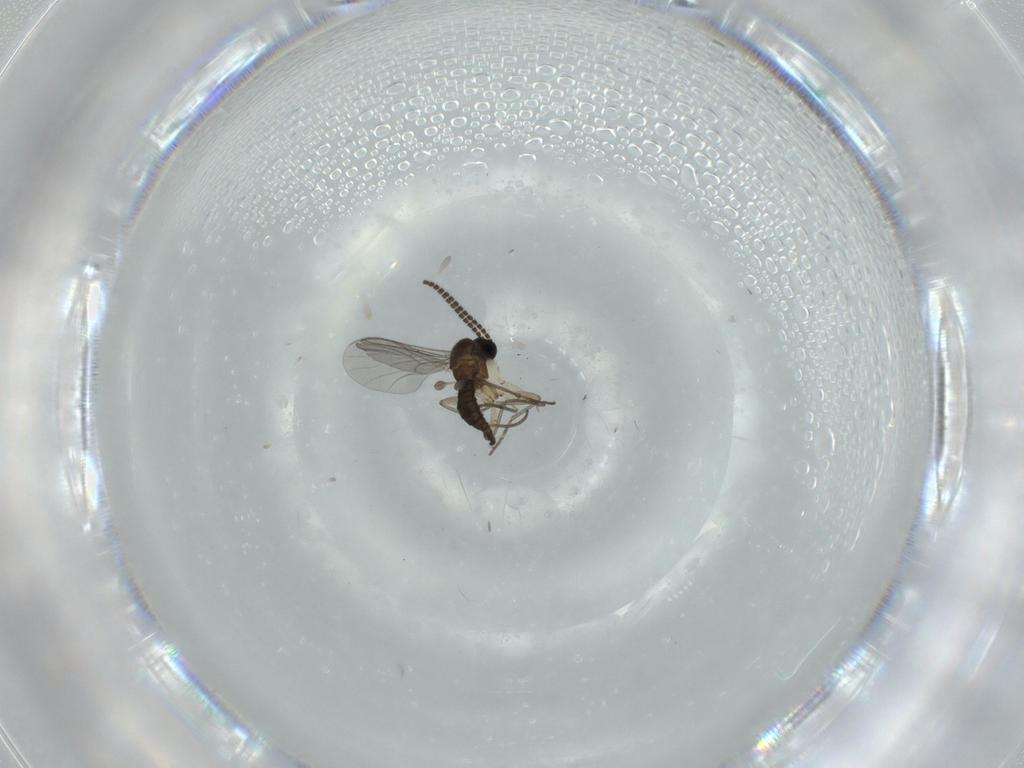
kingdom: Animalia
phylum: Arthropoda
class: Insecta
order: Diptera
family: Sciaridae
